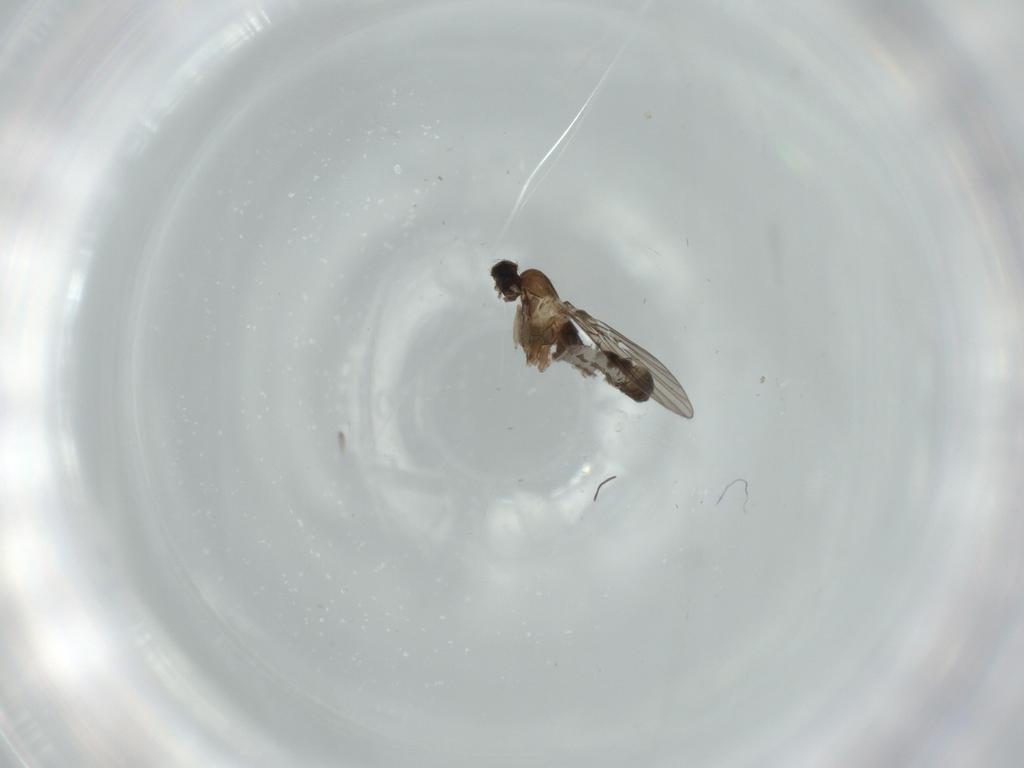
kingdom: Animalia
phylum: Arthropoda
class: Insecta
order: Diptera
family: Psychodidae
